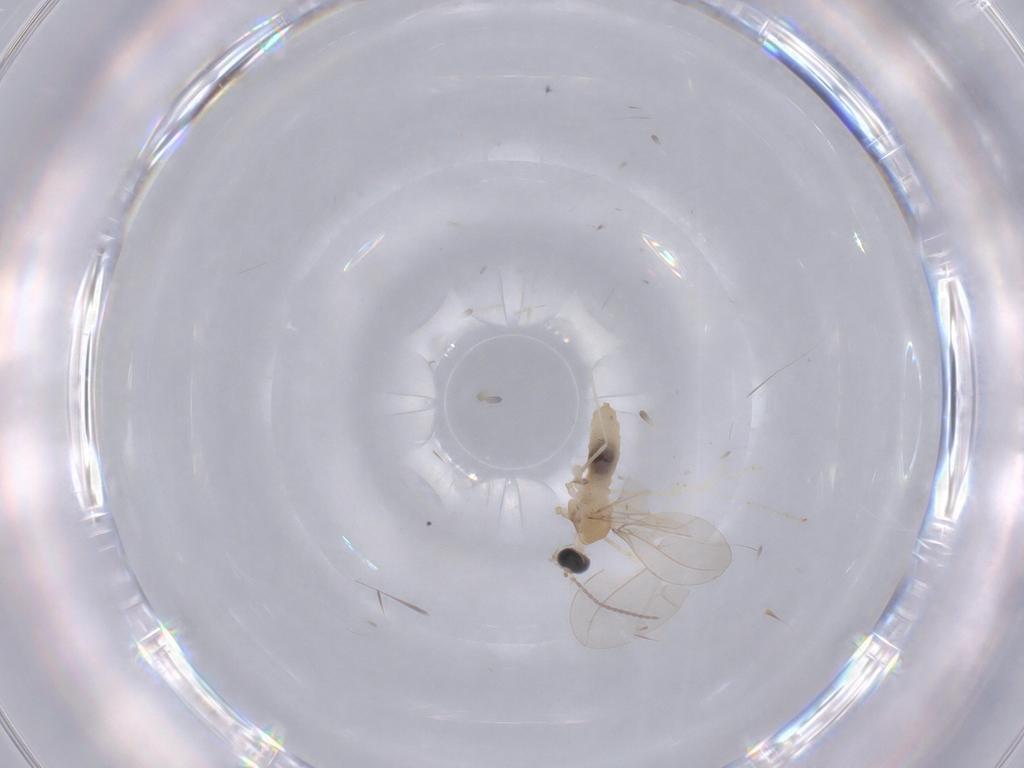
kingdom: Animalia
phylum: Arthropoda
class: Insecta
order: Diptera
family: Cecidomyiidae
